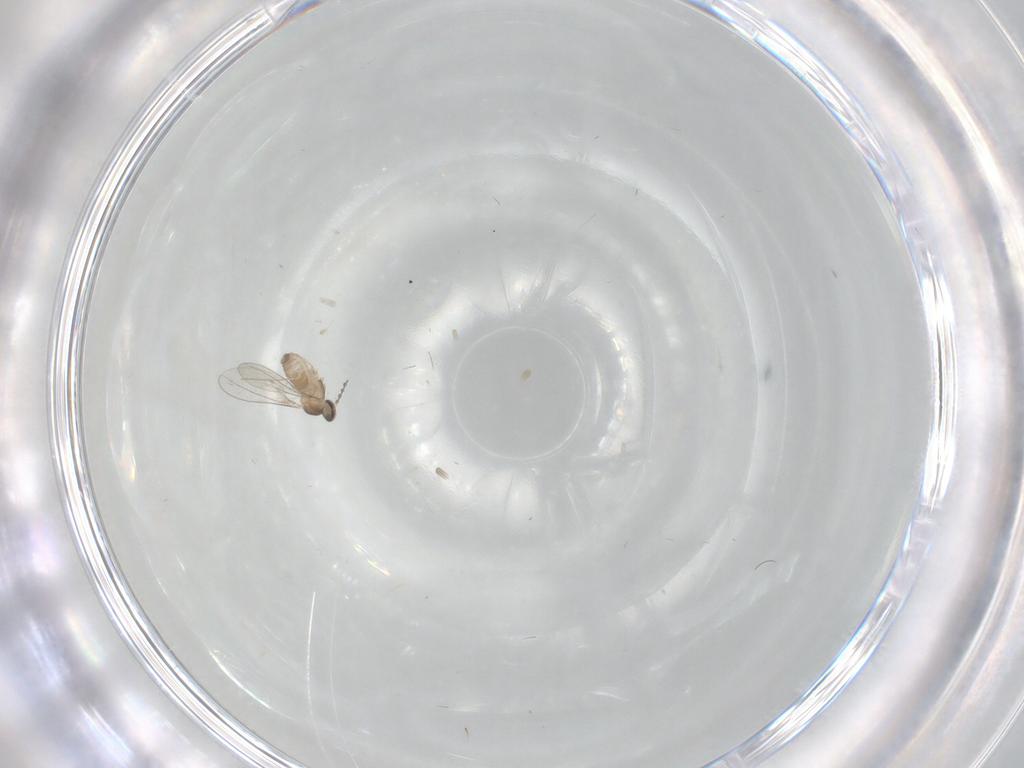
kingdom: Animalia
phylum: Arthropoda
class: Insecta
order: Diptera
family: Cecidomyiidae
